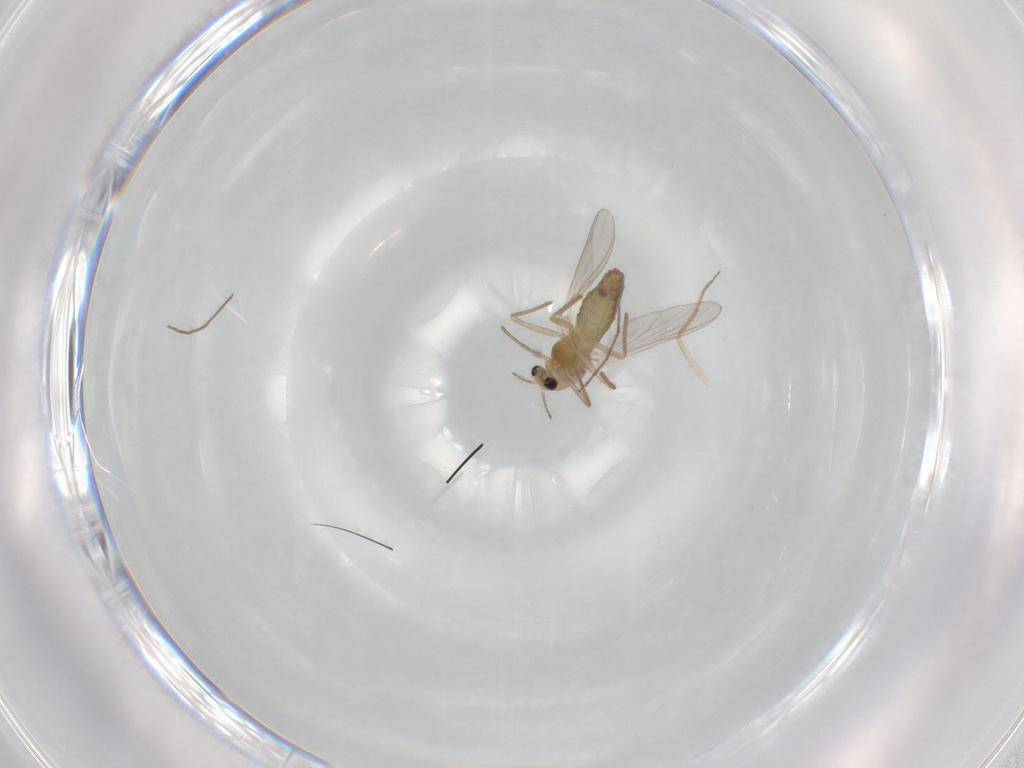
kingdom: Animalia
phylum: Arthropoda
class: Insecta
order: Diptera
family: Chironomidae
